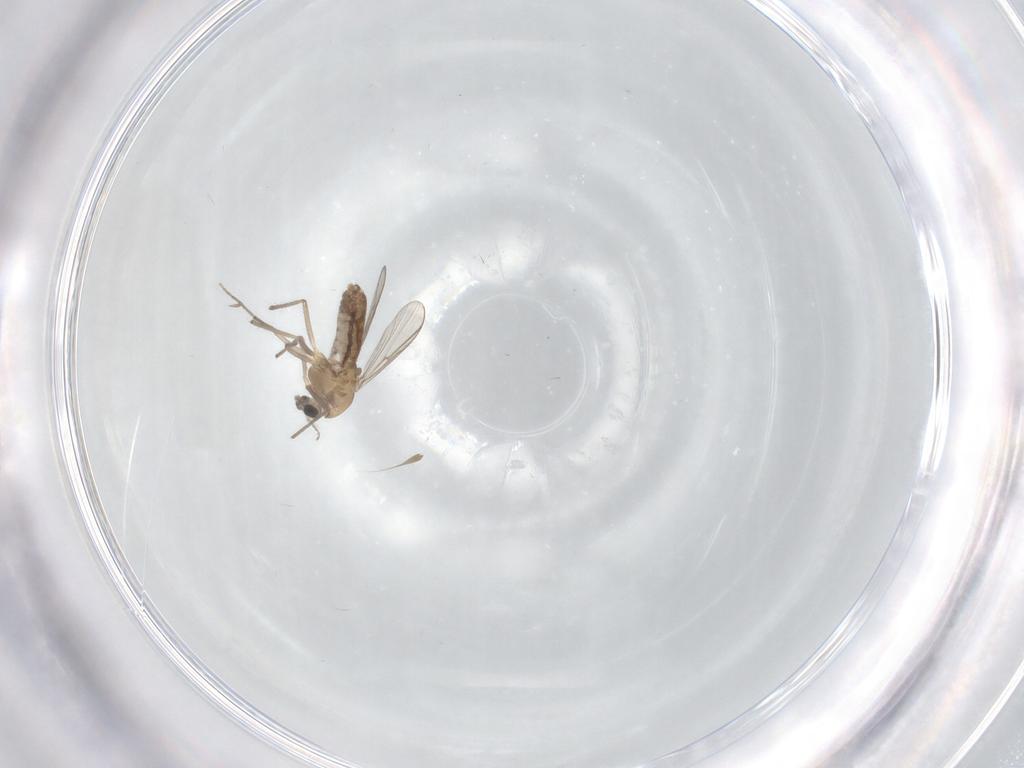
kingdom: Animalia
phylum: Arthropoda
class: Insecta
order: Diptera
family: Chironomidae
